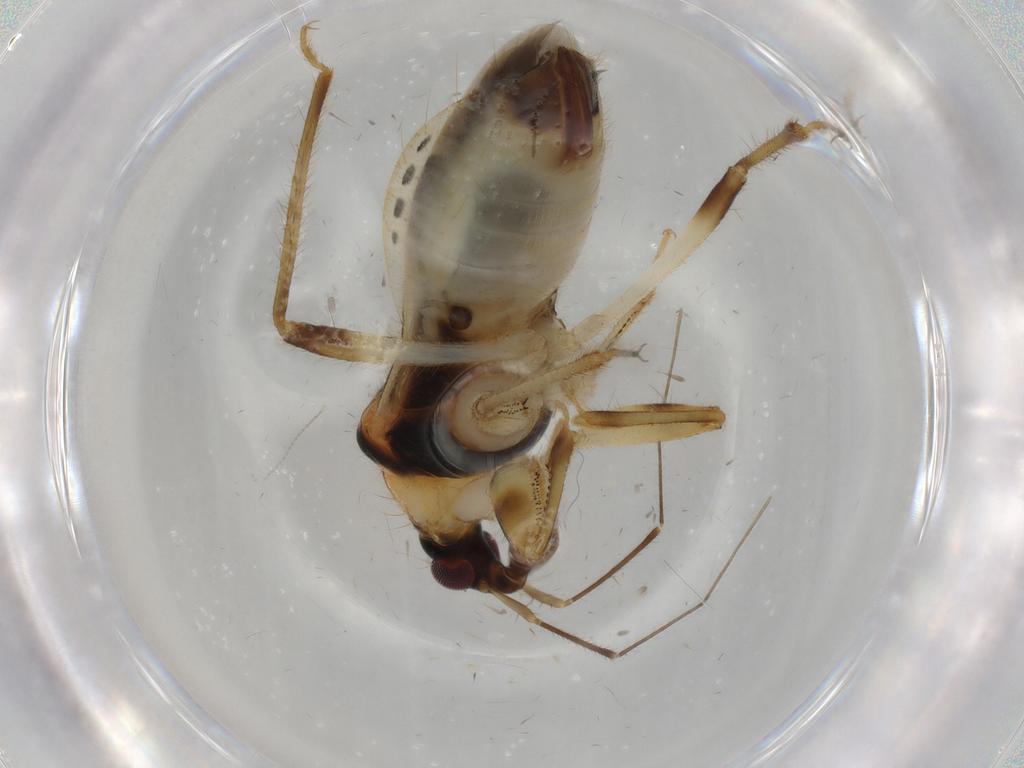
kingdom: Animalia
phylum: Arthropoda
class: Insecta
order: Hemiptera
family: Nabidae
